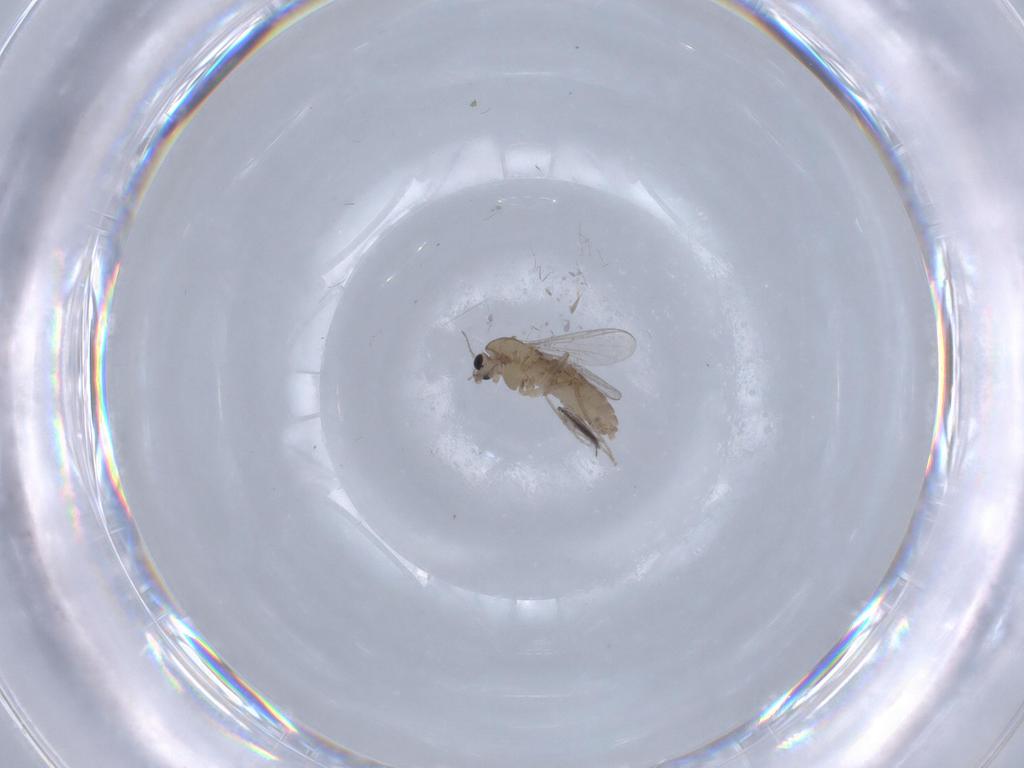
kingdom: Animalia
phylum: Arthropoda
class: Insecta
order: Diptera
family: Chironomidae
